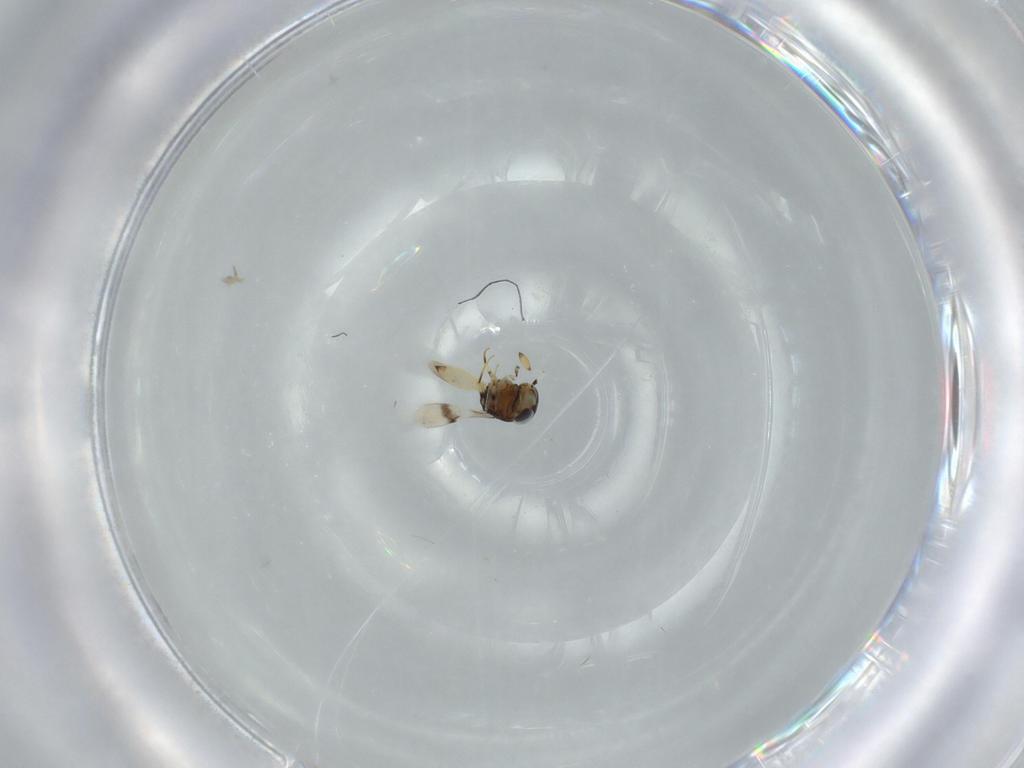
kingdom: Animalia
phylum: Arthropoda
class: Insecta
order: Hymenoptera
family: Scelionidae
